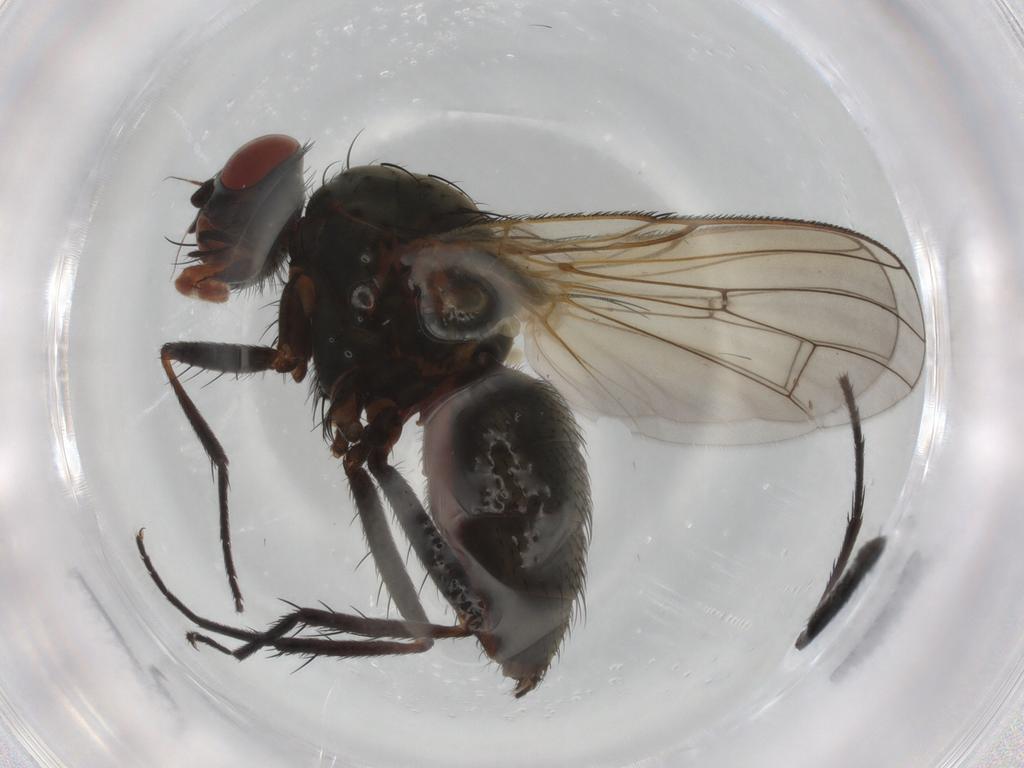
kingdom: Animalia
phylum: Arthropoda
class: Insecta
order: Diptera
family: Anthomyiidae
